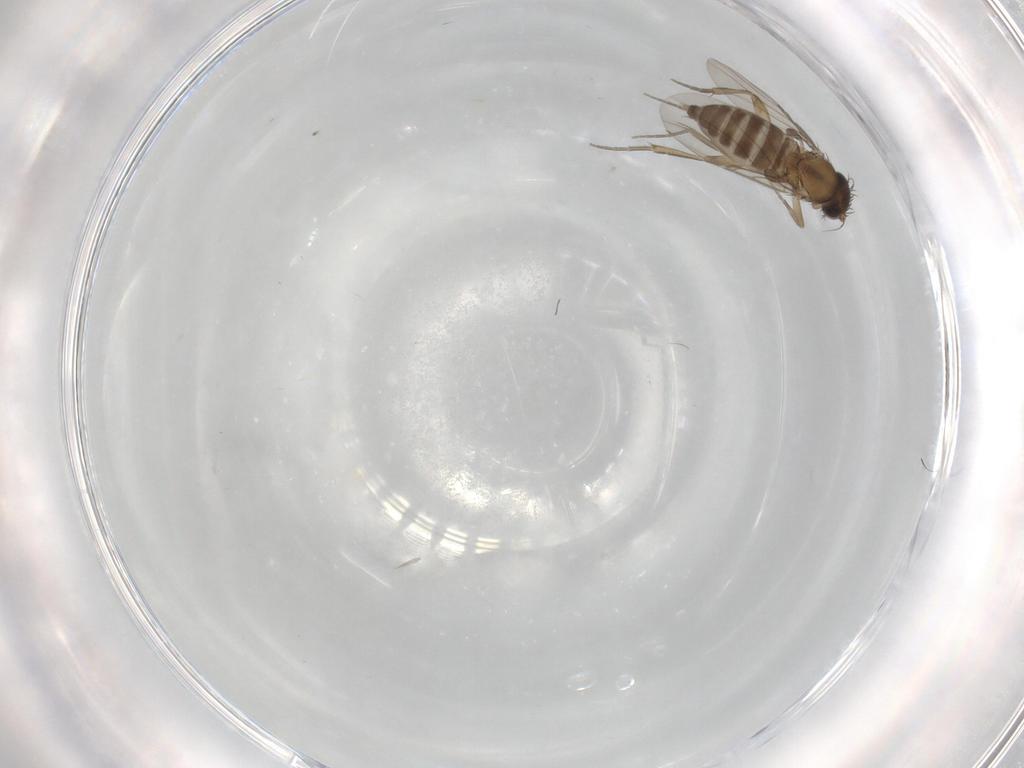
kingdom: Animalia
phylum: Arthropoda
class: Insecta
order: Diptera
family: Phoridae
